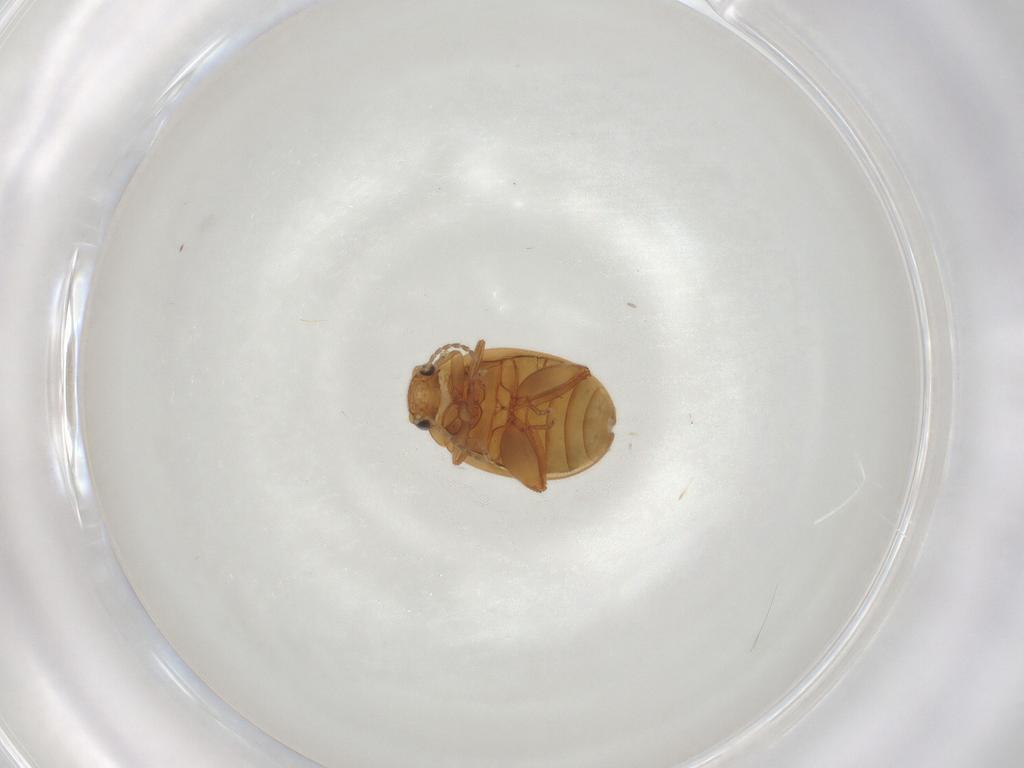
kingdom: Animalia
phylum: Arthropoda
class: Insecta
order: Coleoptera
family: Scirtidae
